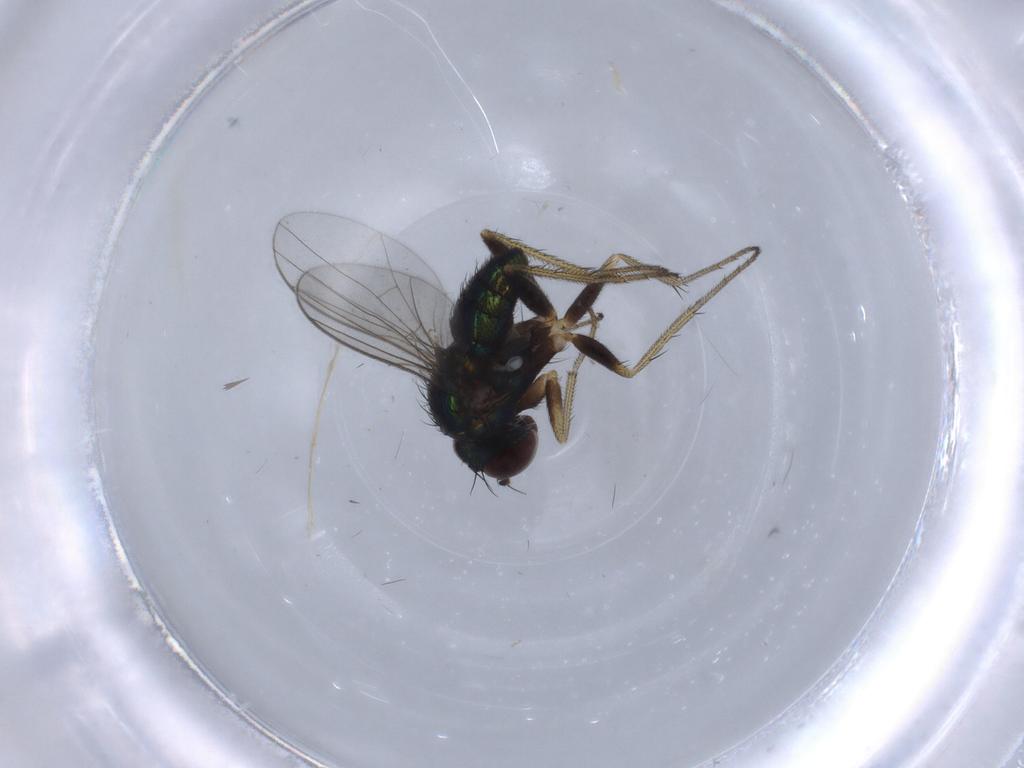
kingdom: Animalia
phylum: Arthropoda
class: Insecta
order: Diptera
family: Dolichopodidae
